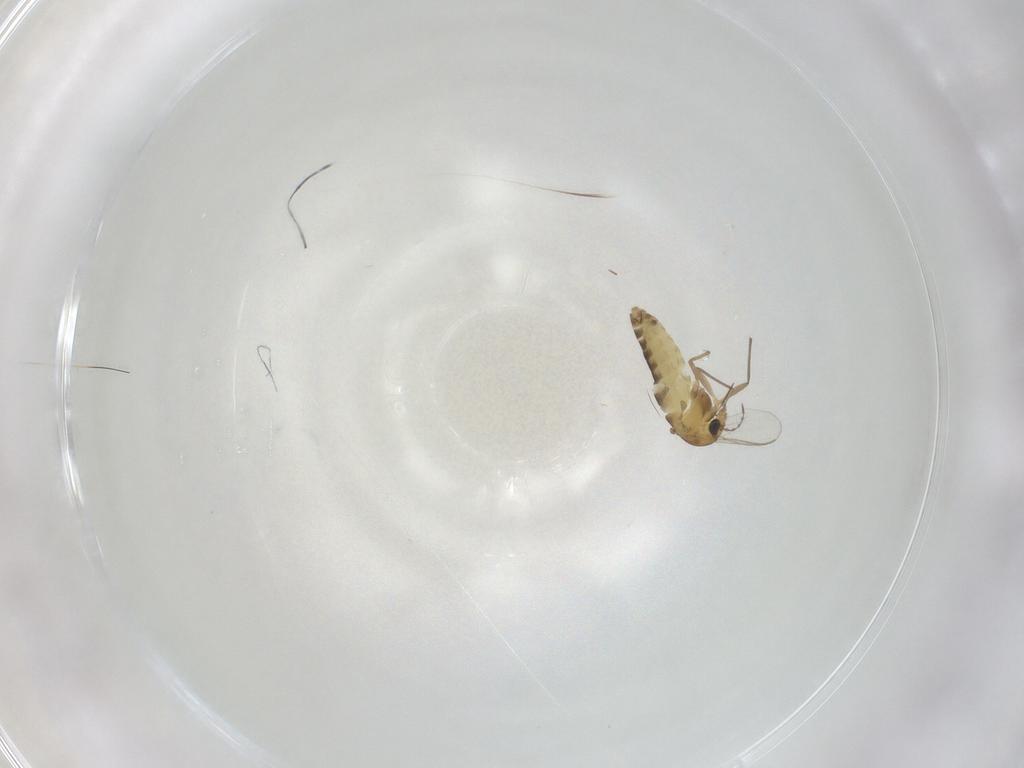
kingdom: Animalia
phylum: Arthropoda
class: Insecta
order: Diptera
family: Chironomidae
